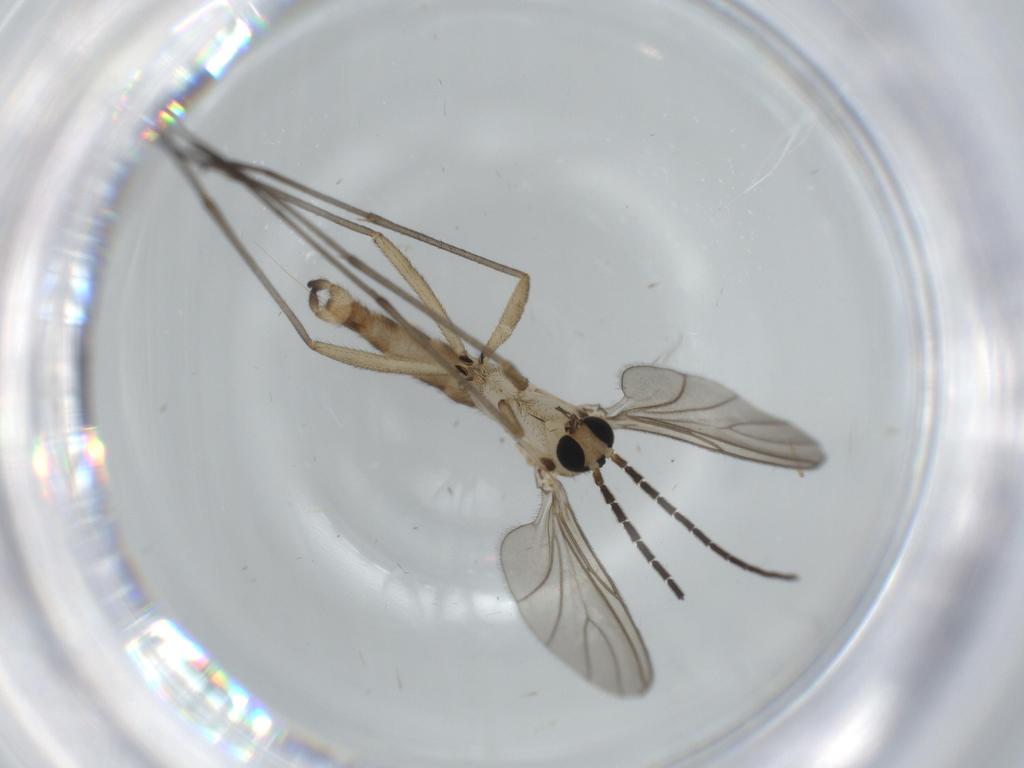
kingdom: Animalia
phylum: Arthropoda
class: Insecta
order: Diptera
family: Sciaridae
